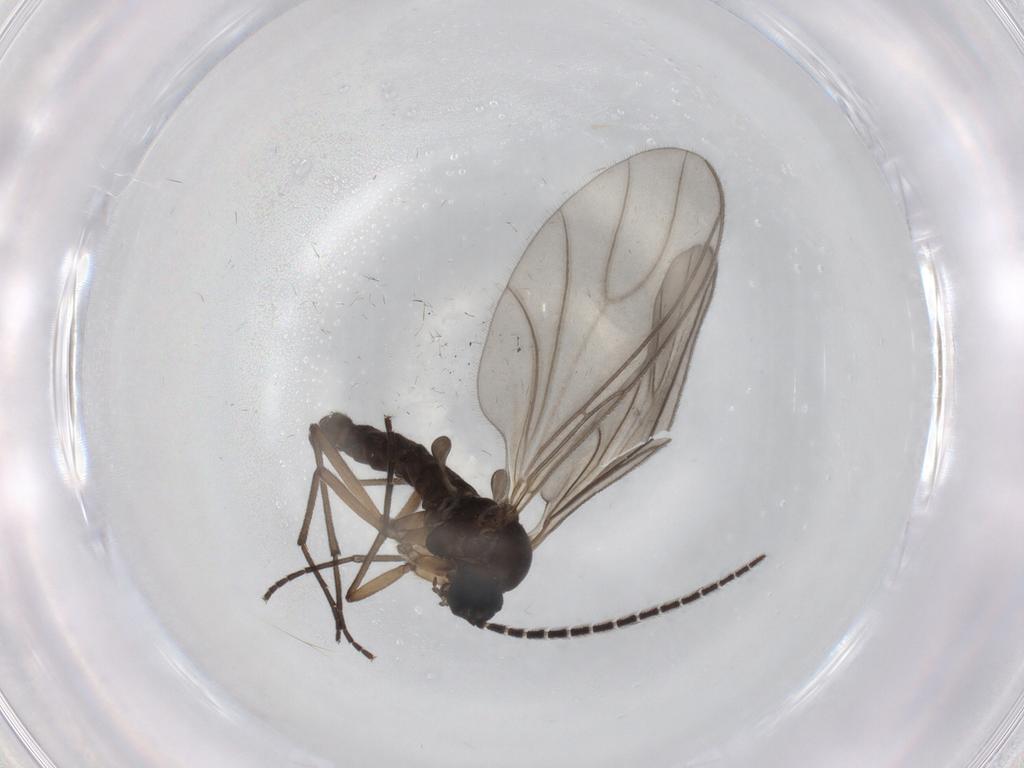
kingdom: Animalia
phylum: Arthropoda
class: Insecta
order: Diptera
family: Sciaridae
